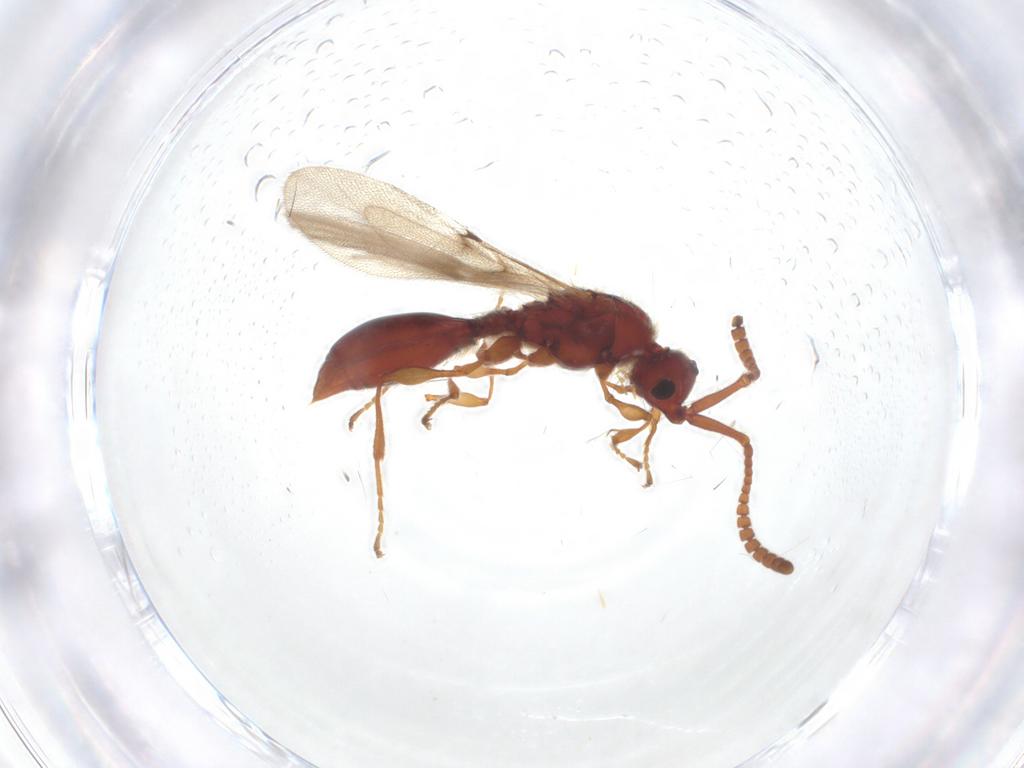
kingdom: Animalia
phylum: Arthropoda
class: Insecta
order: Hymenoptera
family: Diapriidae
